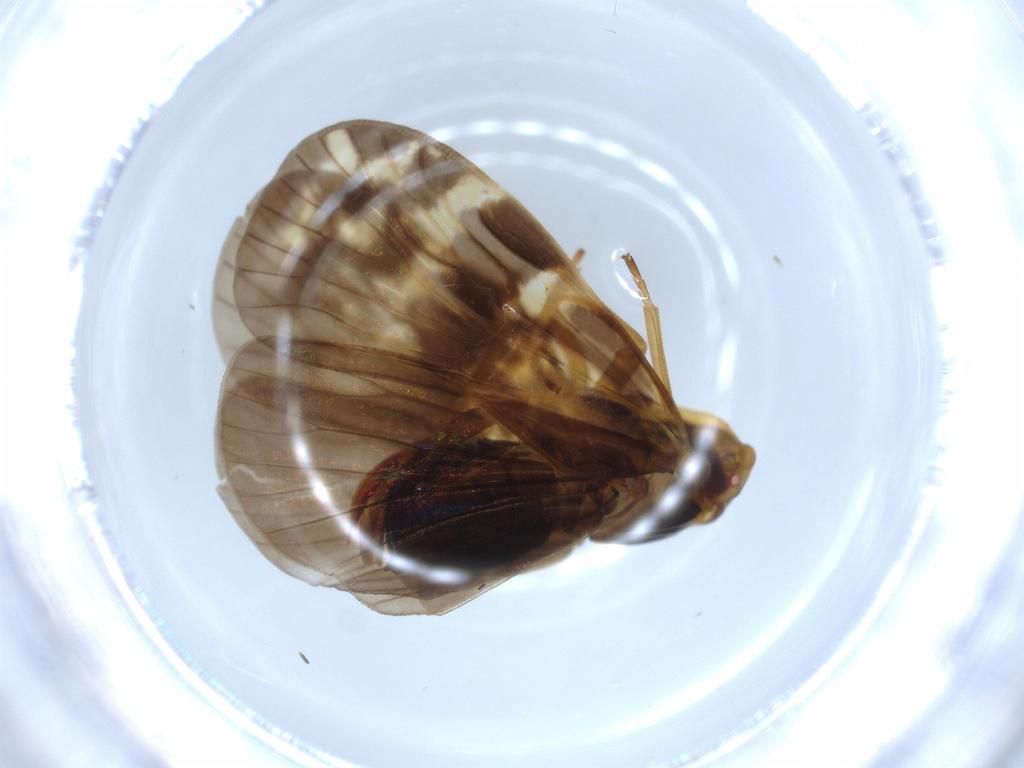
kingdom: Animalia
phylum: Arthropoda
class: Insecta
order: Hemiptera
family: Cixiidae
